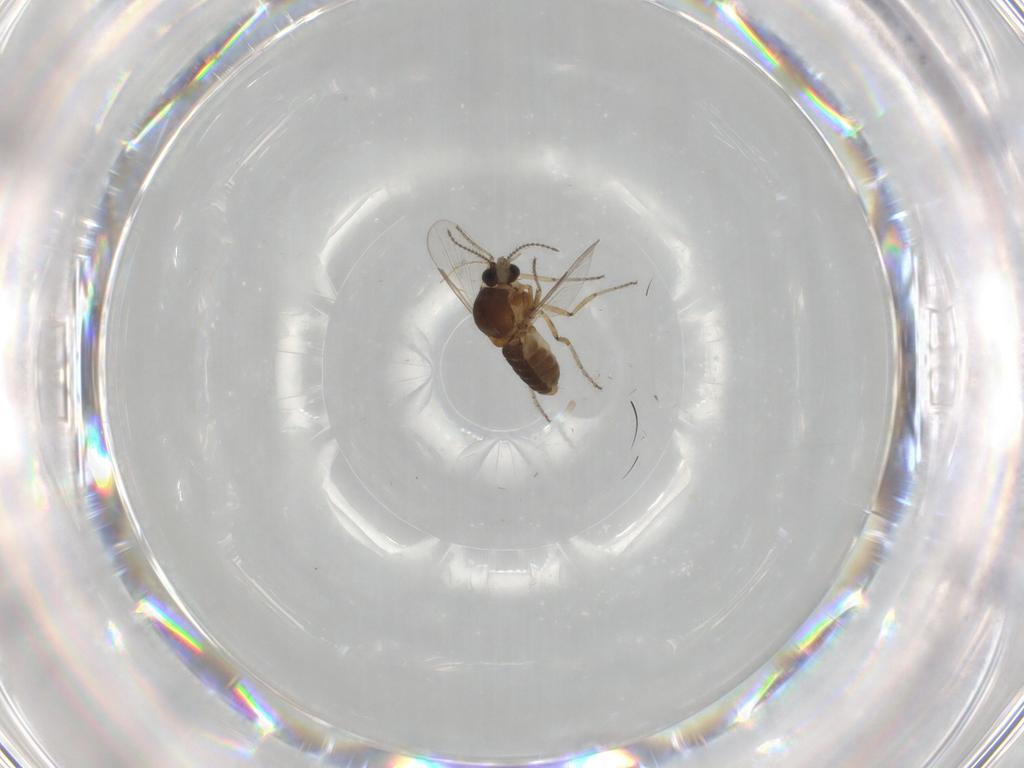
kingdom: Animalia
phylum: Arthropoda
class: Insecta
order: Diptera
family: Ceratopogonidae
